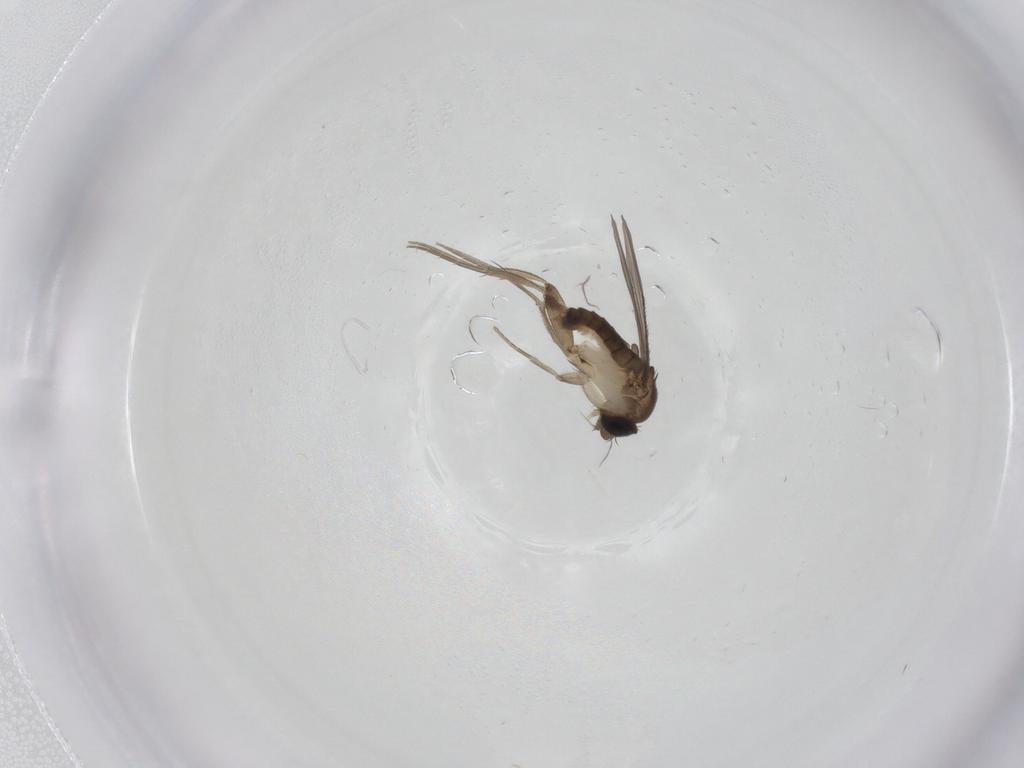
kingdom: Animalia
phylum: Arthropoda
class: Insecta
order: Diptera
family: Phoridae
